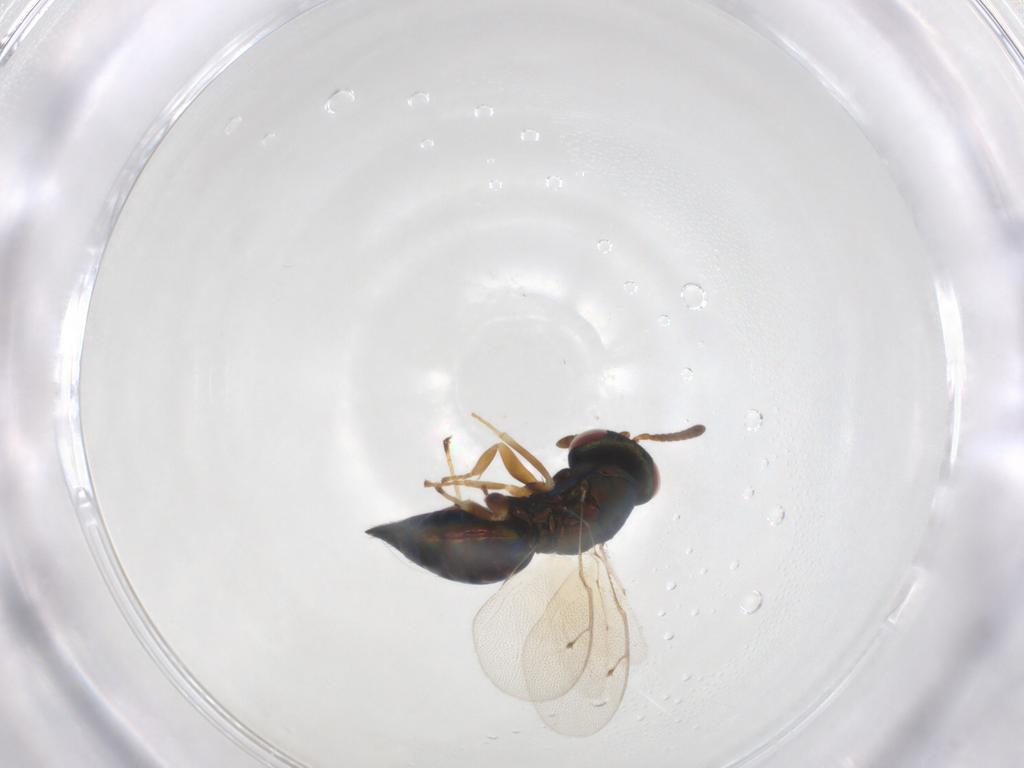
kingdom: Animalia
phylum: Arthropoda
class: Insecta
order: Hymenoptera
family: Pteromalidae
